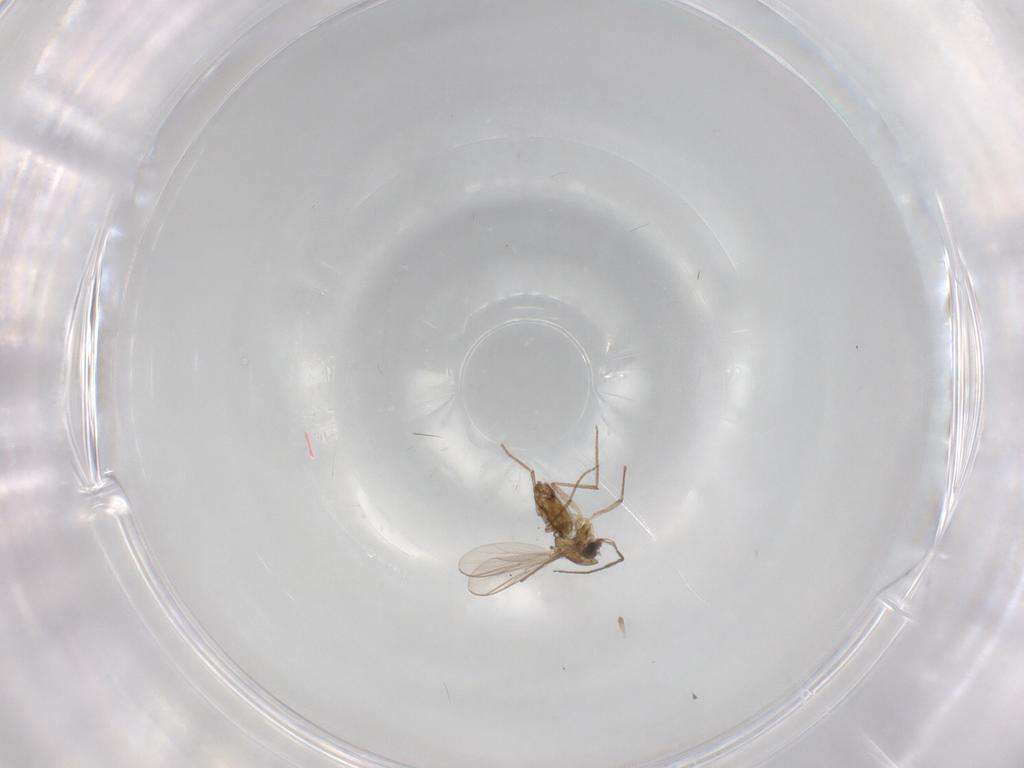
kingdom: Animalia
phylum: Arthropoda
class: Insecta
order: Diptera
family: Chironomidae
